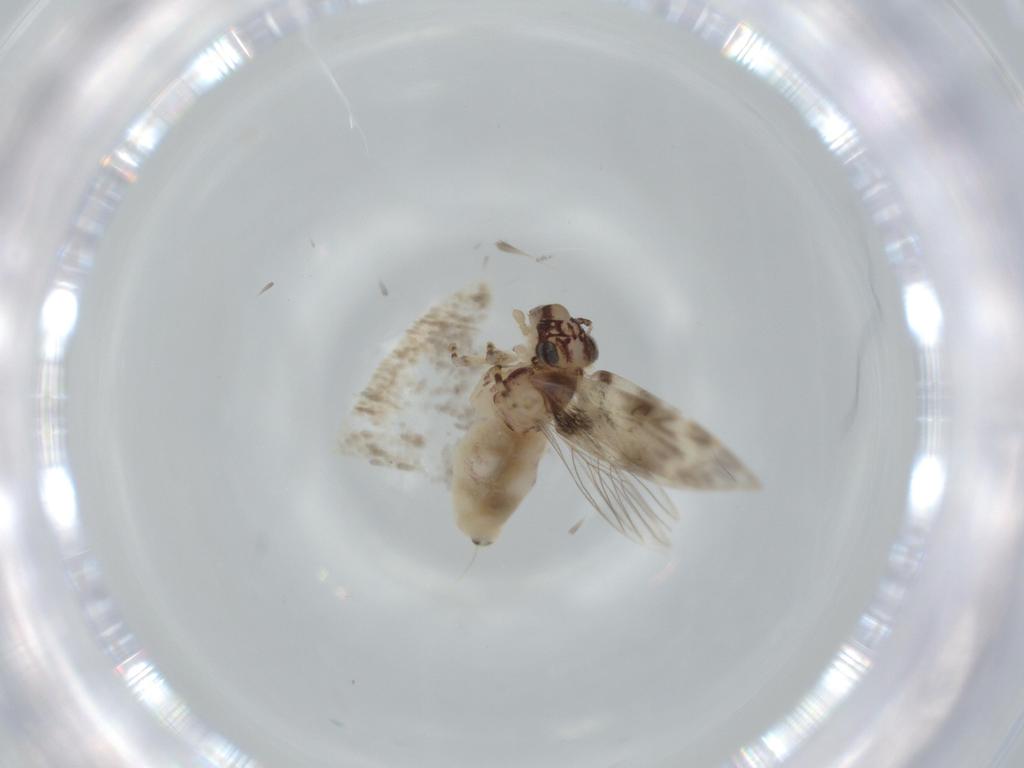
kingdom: Animalia
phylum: Arthropoda
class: Insecta
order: Psocodea
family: Lepidopsocidae
